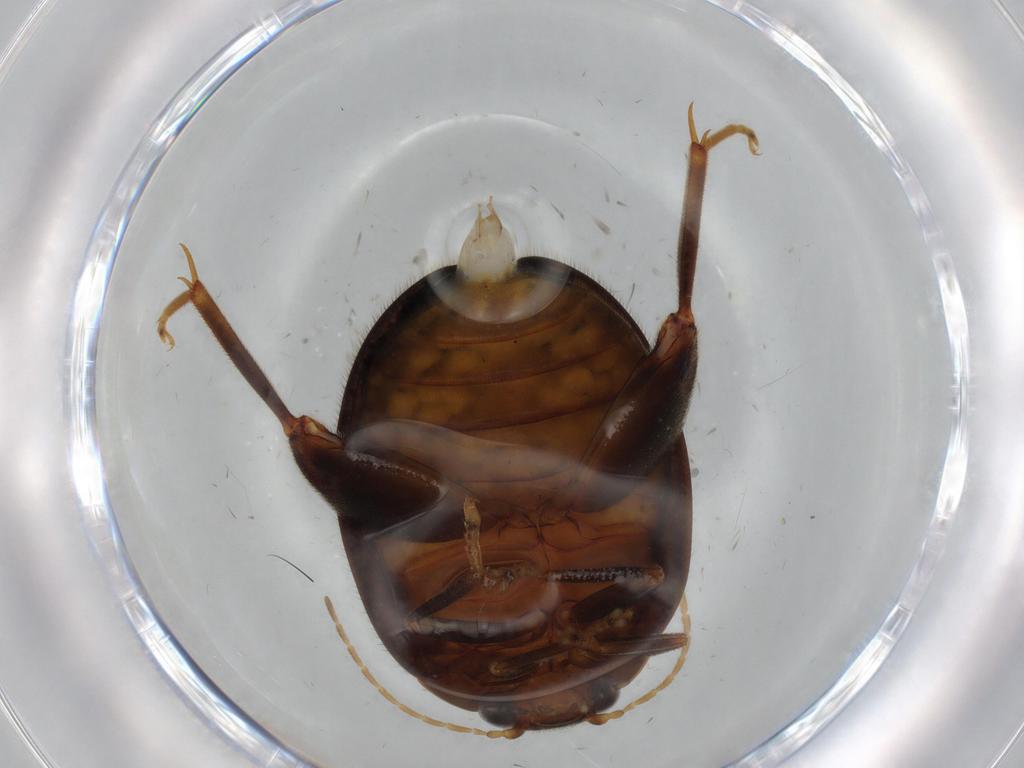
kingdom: Animalia
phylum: Arthropoda
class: Insecta
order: Coleoptera
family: Scirtidae
